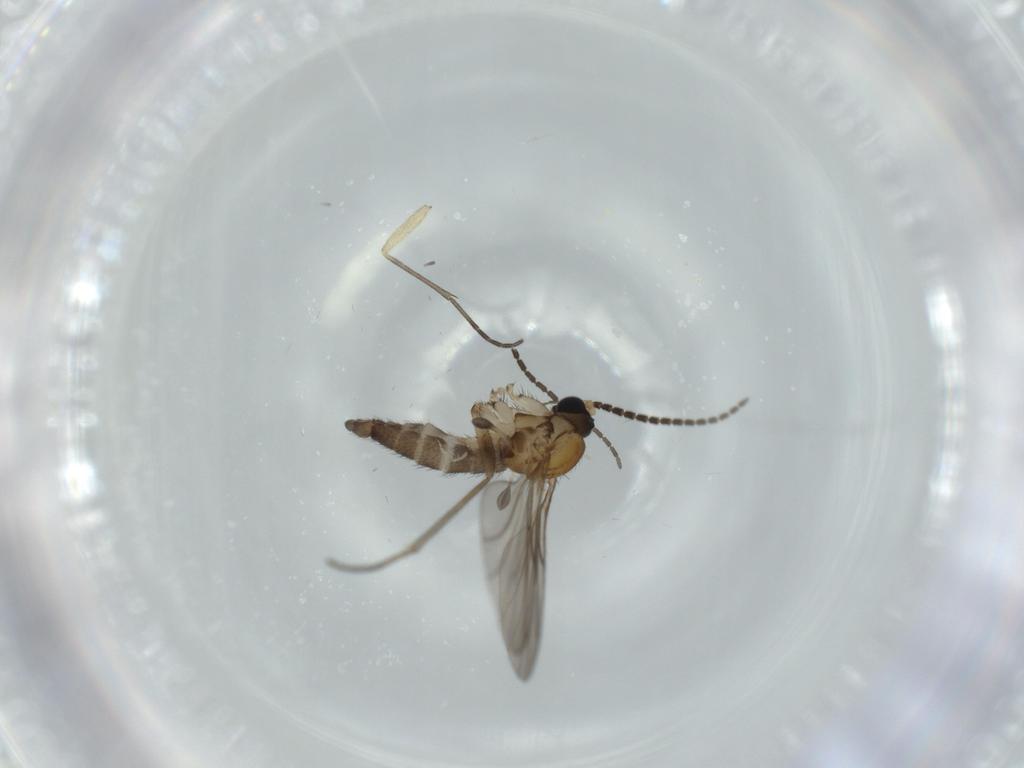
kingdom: Animalia
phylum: Arthropoda
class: Insecta
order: Diptera
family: Sciaridae
